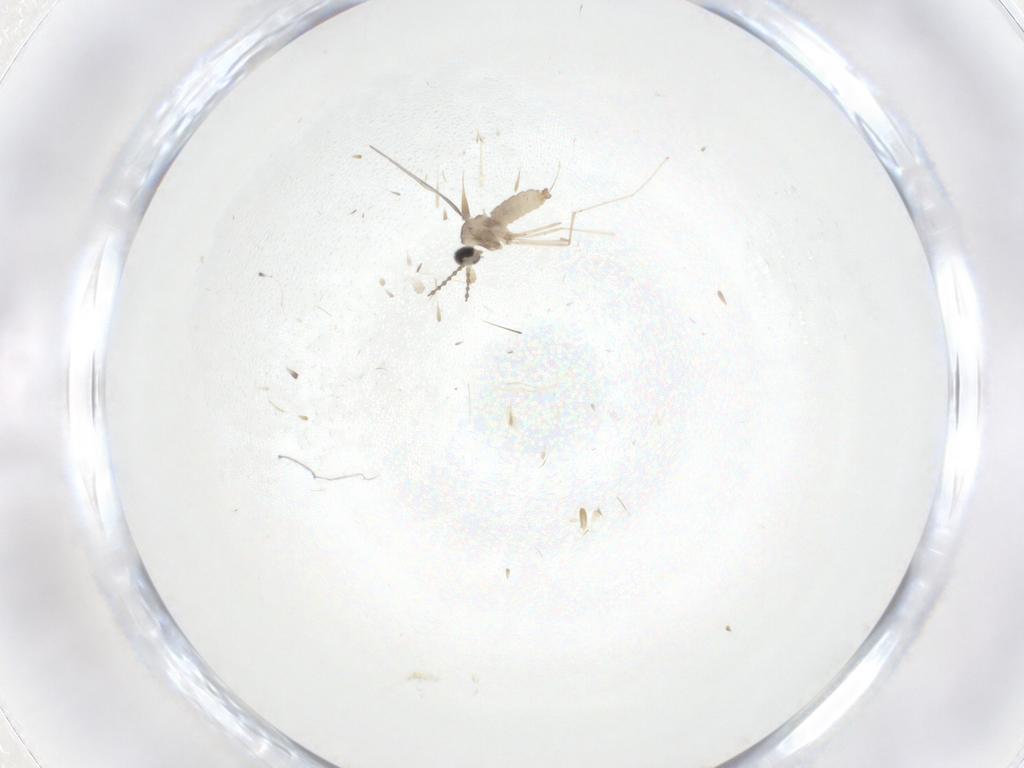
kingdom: Animalia
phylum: Arthropoda
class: Insecta
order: Diptera
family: Cecidomyiidae
